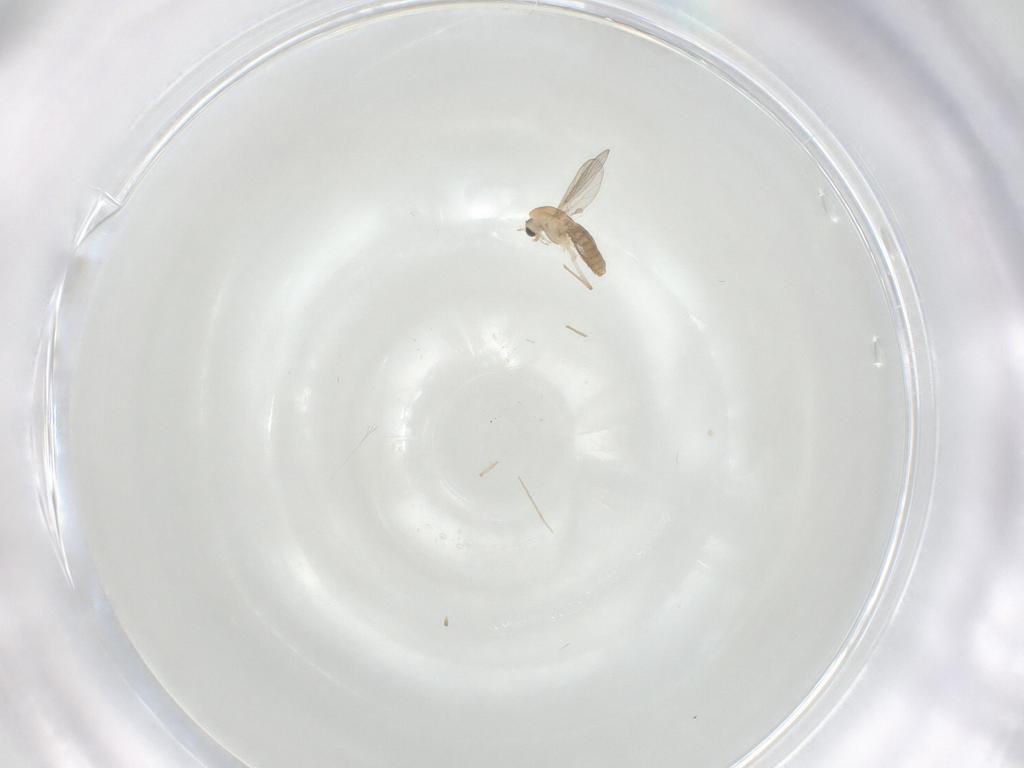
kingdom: Animalia
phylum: Arthropoda
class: Insecta
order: Diptera
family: Chironomidae
